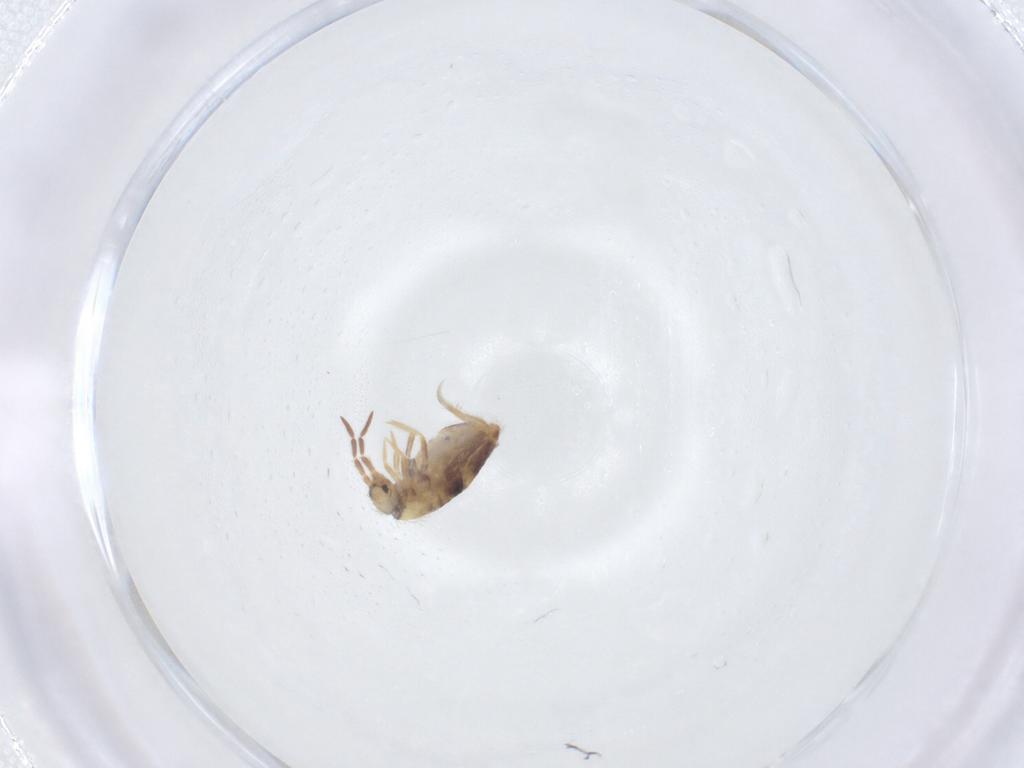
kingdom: Animalia
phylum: Arthropoda
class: Collembola
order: Entomobryomorpha
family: Entomobryidae
